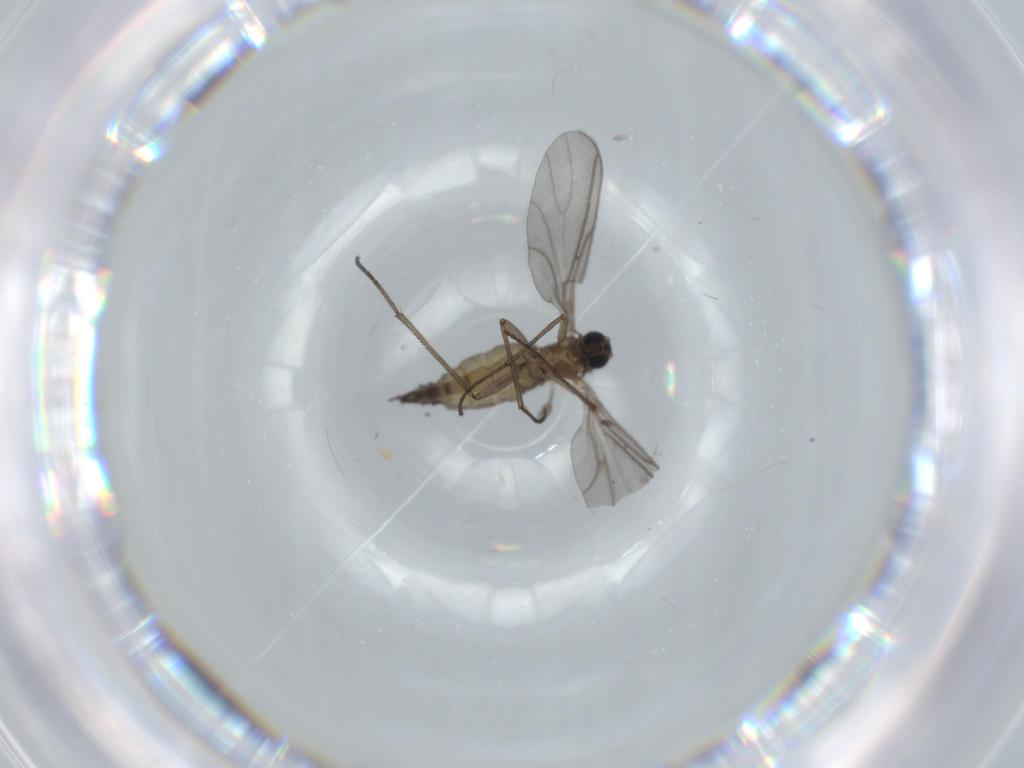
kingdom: Animalia
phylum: Arthropoda
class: Insecta
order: Diptera
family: Sciaridae
